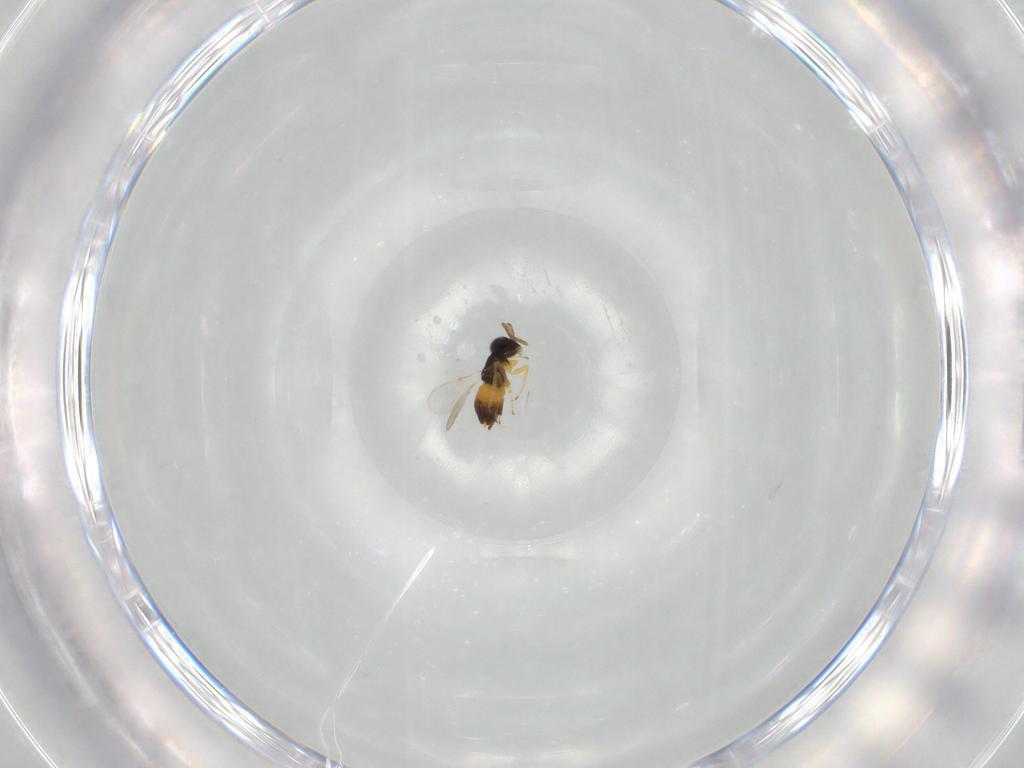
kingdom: Animalia
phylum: Arthropoda
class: Insecta
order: Hymenoptera
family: Encyrtidae
